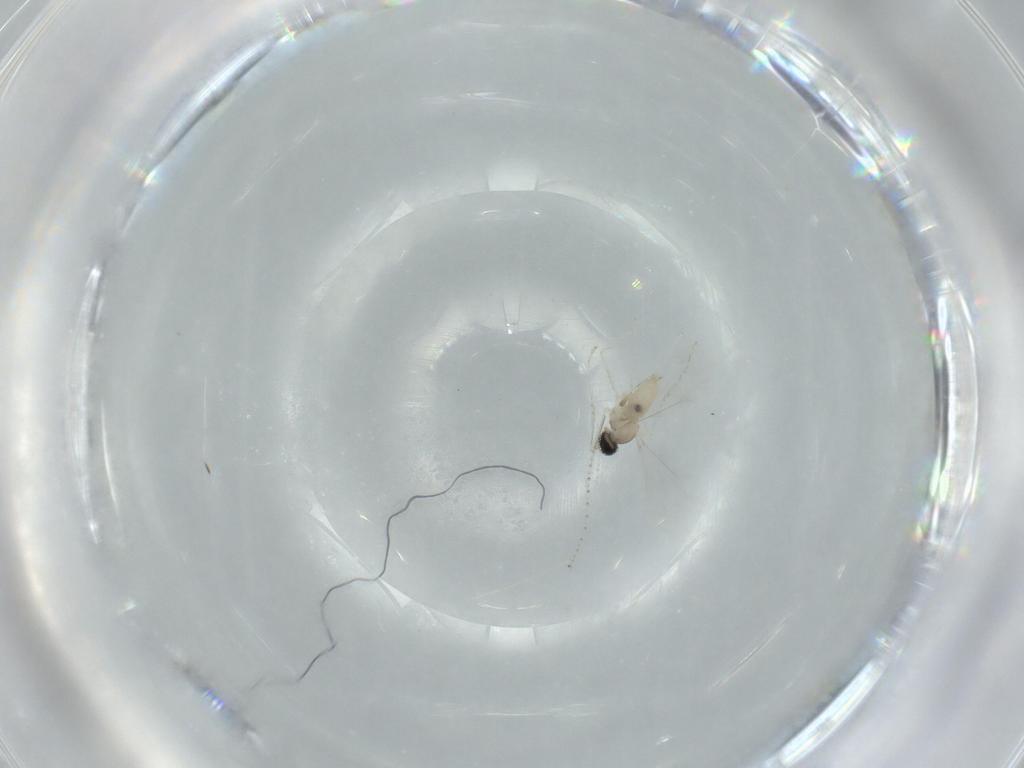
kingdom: Animalia
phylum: Arthropoda
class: Insecta
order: Diptera
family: Cecidomyiidae
